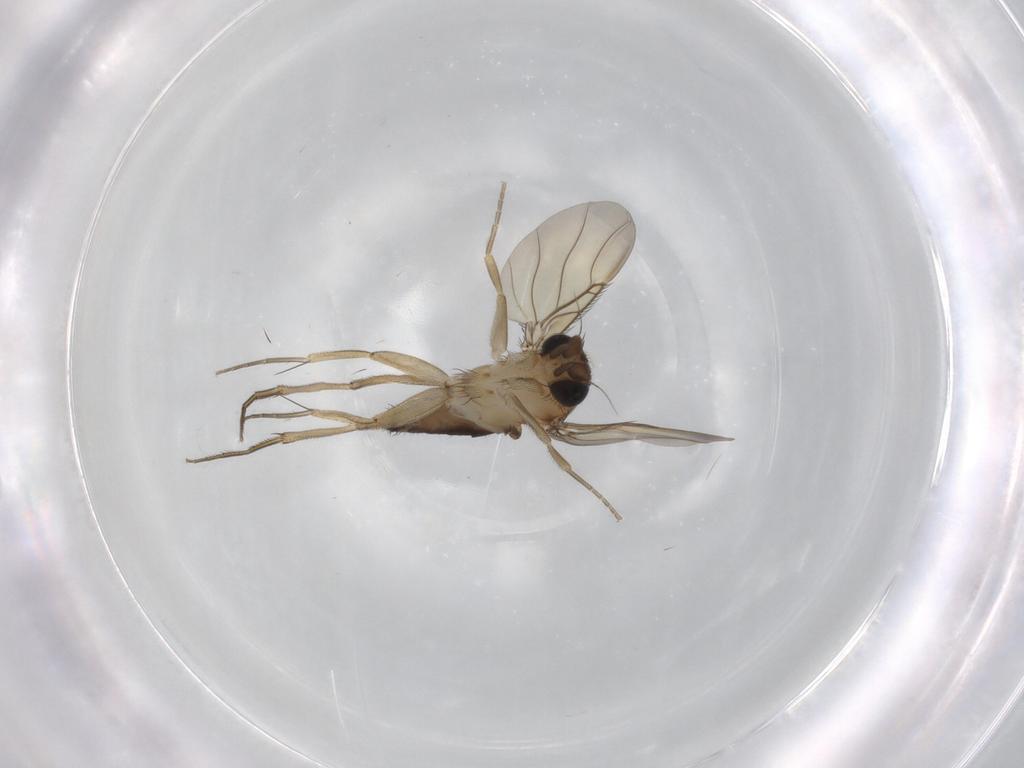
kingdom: Animalia
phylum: Arthropoda
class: Insecta
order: Diptera
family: Phoridae
